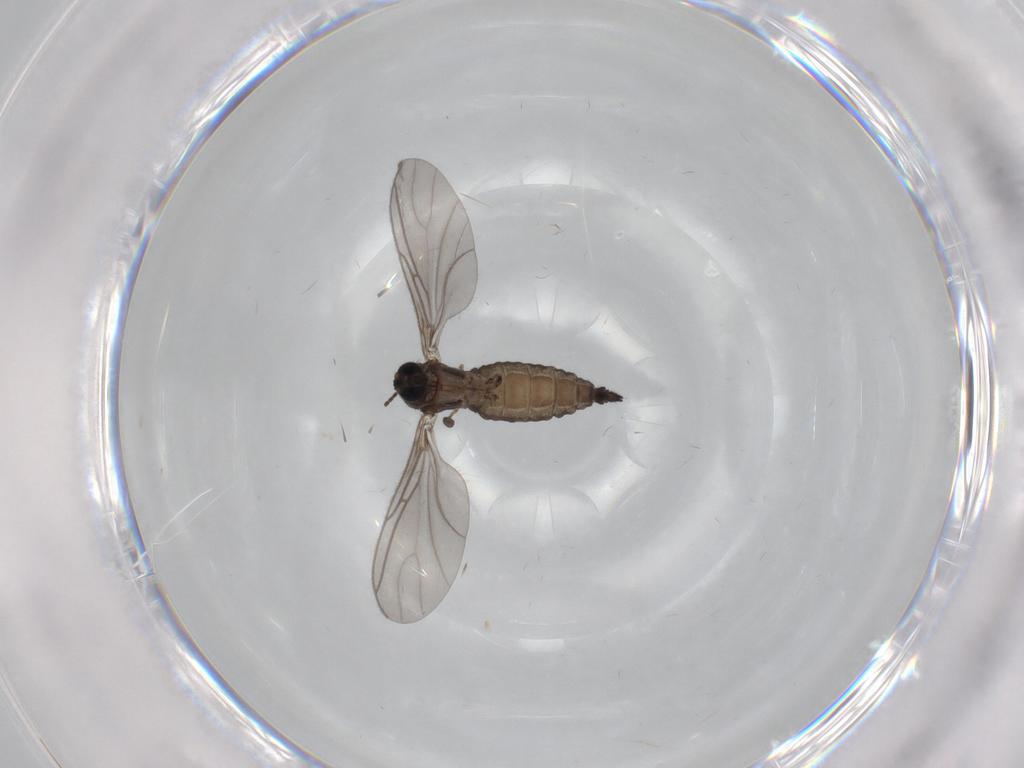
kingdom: Animalia
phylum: Arthropoda
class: Insecta
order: Diptera
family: Sciaridae
